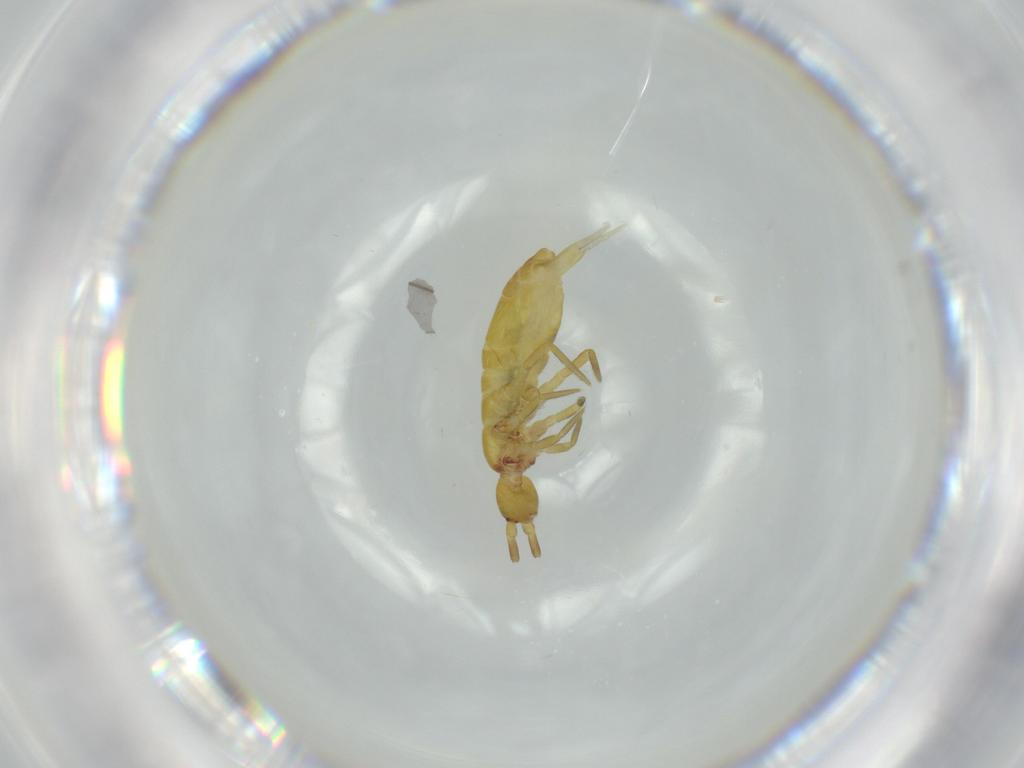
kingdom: Animalia
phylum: Arthropoda
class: Collembola
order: Entomobryomorpha
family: Tomoceridae
